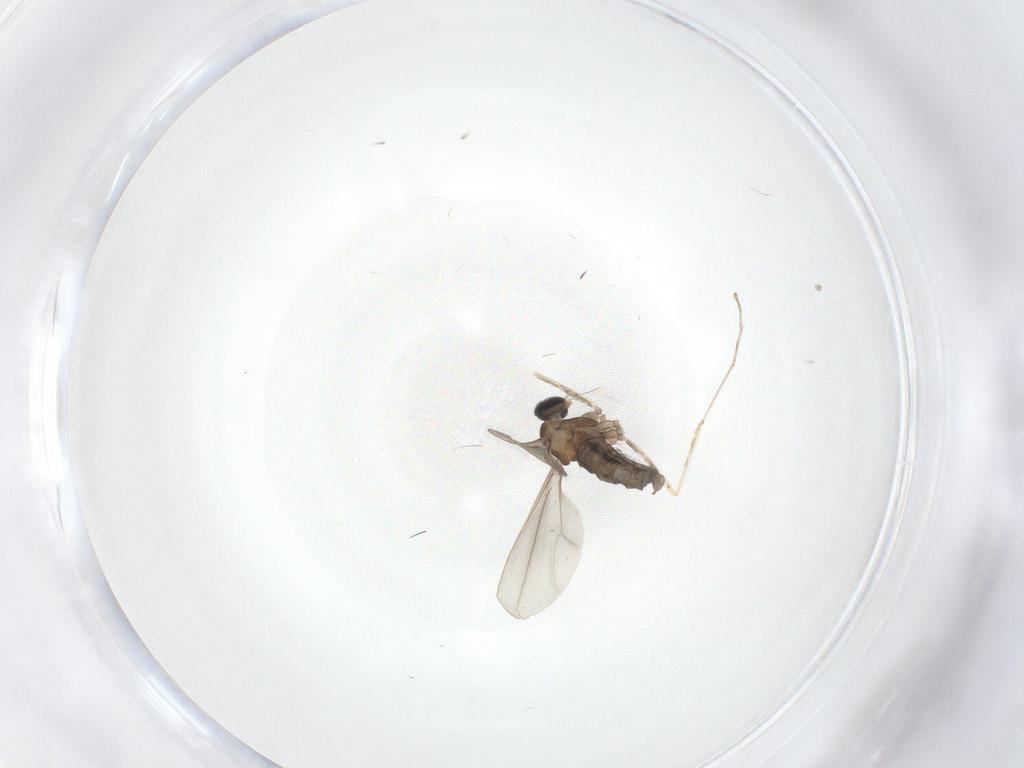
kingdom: Animalia
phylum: Arthropoda
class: Insecta
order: Diptera
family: Cecidomyiidae
